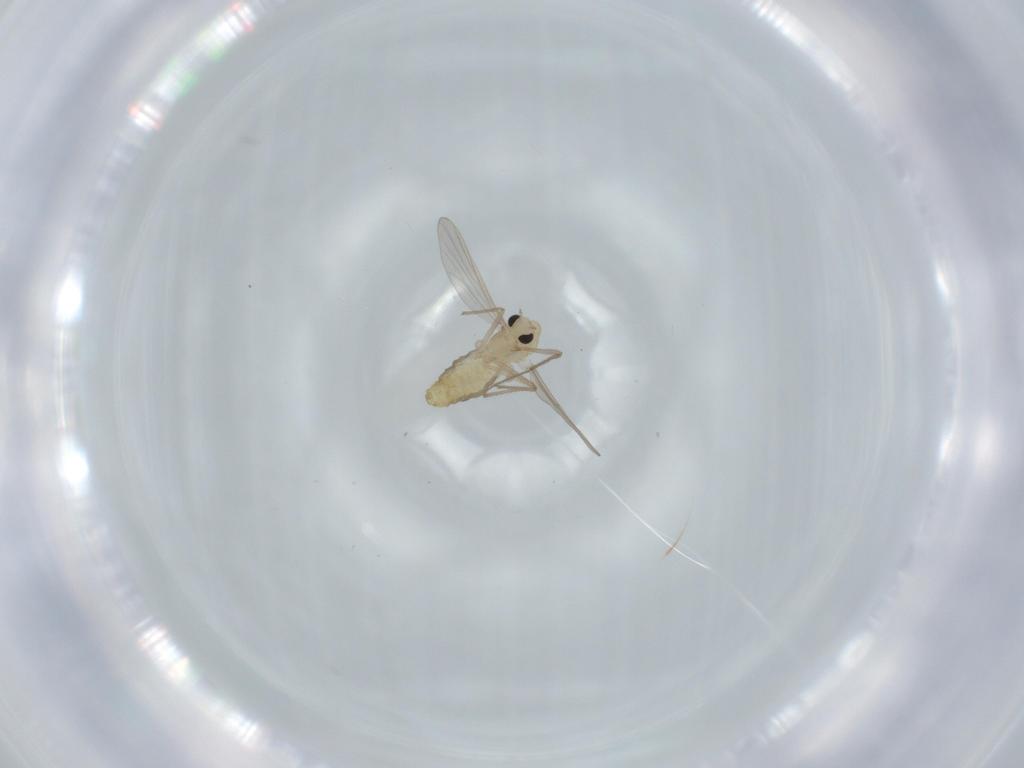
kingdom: Animalia
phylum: Arthropoda
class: Insecta
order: Diptera
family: Chironomidae
